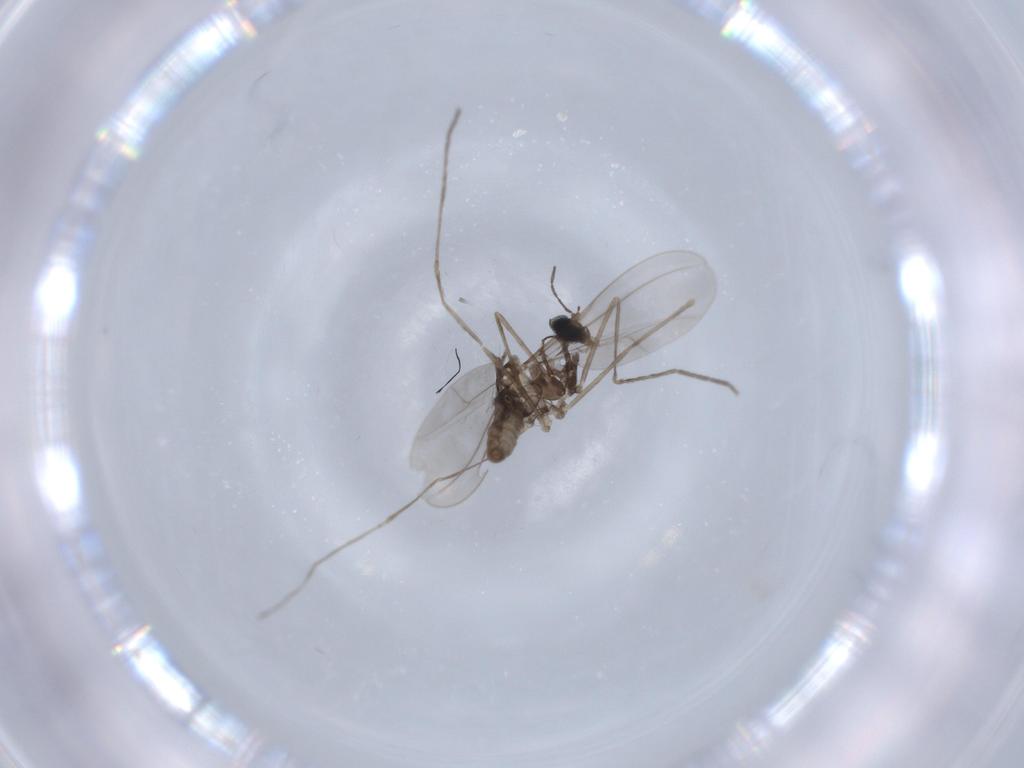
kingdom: Animalia
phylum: Arthropoda
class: Insecta
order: Diptera
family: Cecidomyiidae
